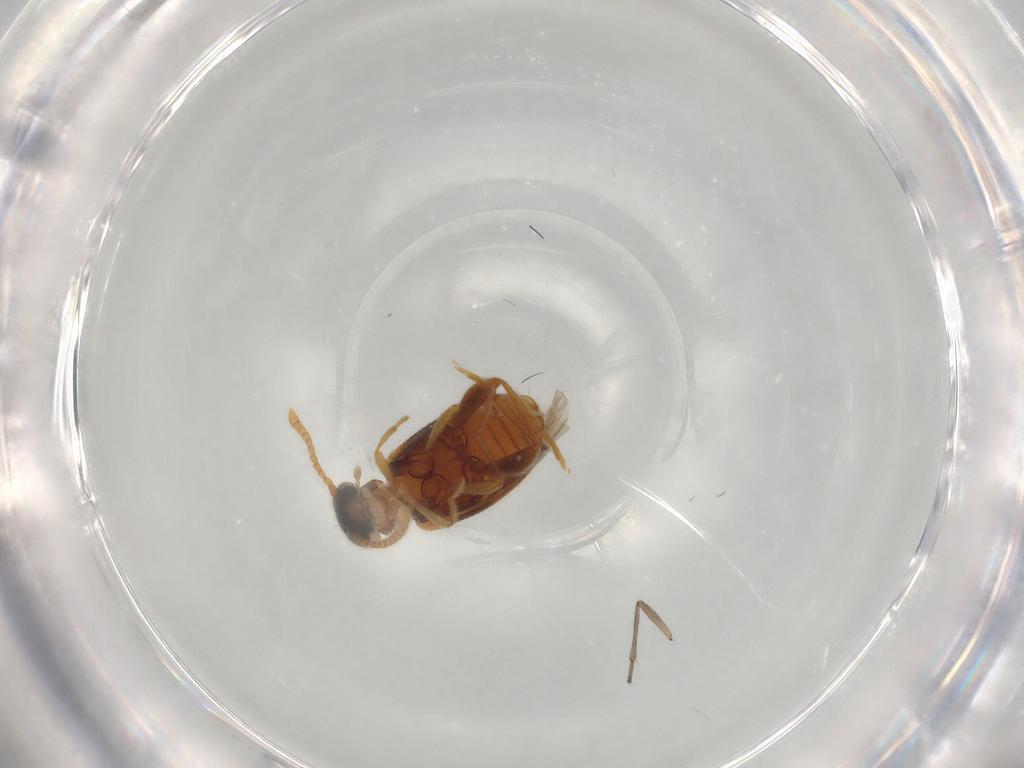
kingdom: Animalia
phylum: Arthropoda
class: Insecta
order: Coleoptera
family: Aderidae
